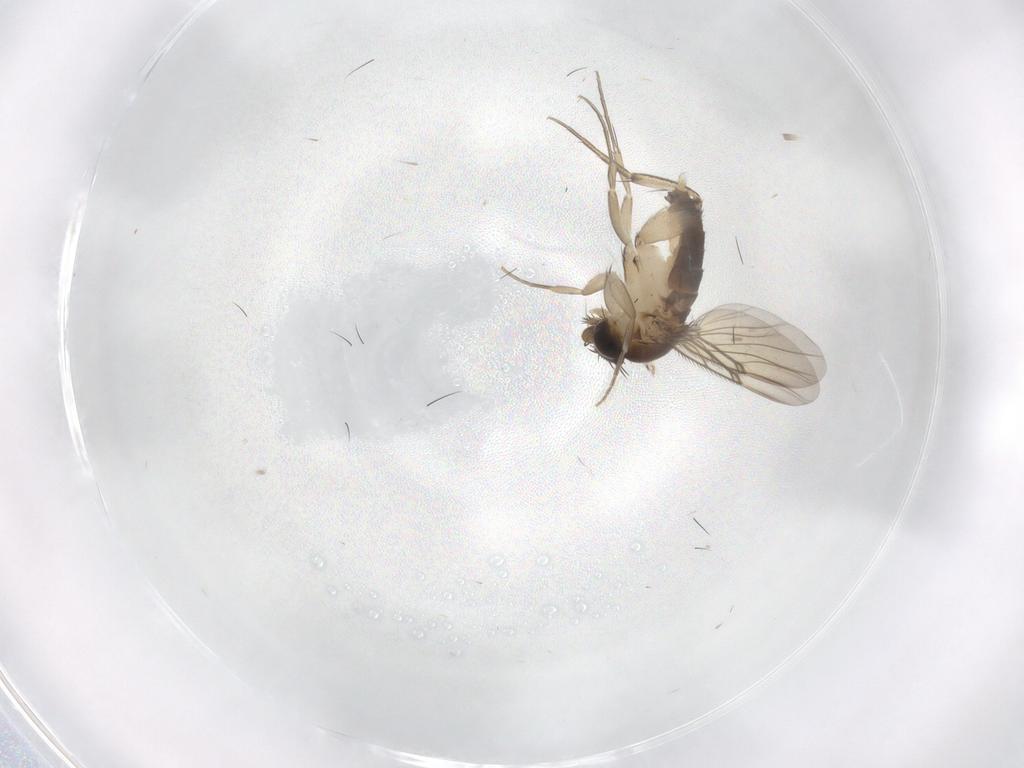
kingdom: Animalia
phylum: Arthropoda
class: Insecta
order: Diptera
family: Phoridae
